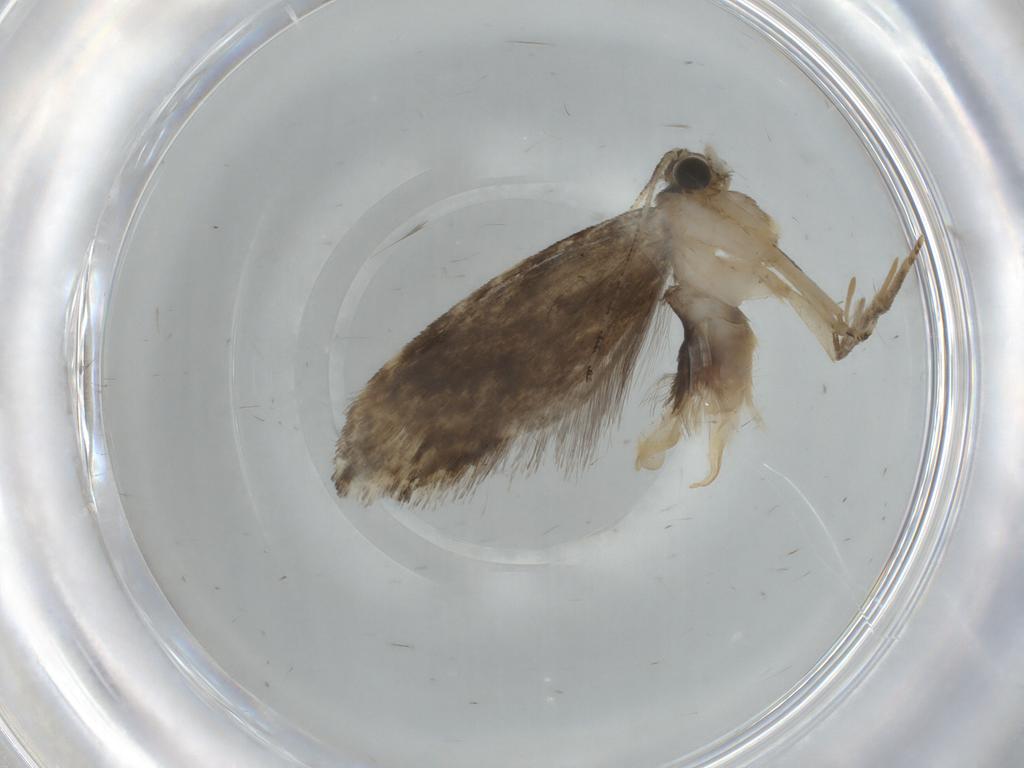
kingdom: Animalia
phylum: Arthropoda
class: Insecta
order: Lepidoptera
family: Tineidae
